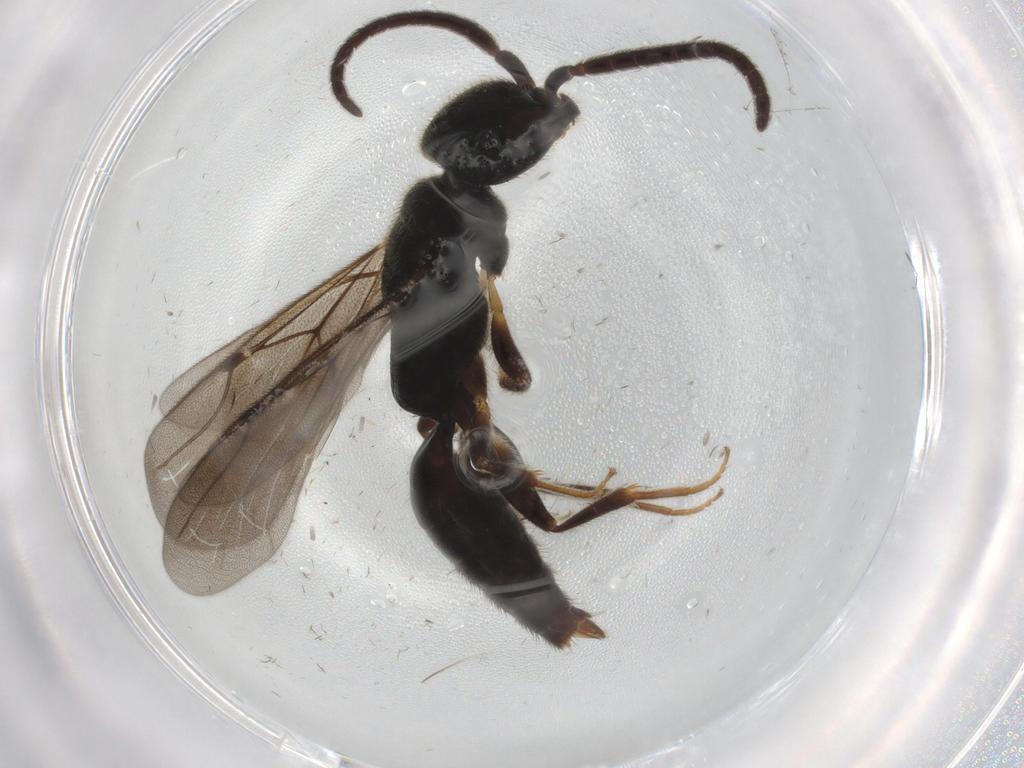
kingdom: Animalia
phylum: Arthropoda
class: Insecta
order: Hymenoptera
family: Bethylidae
